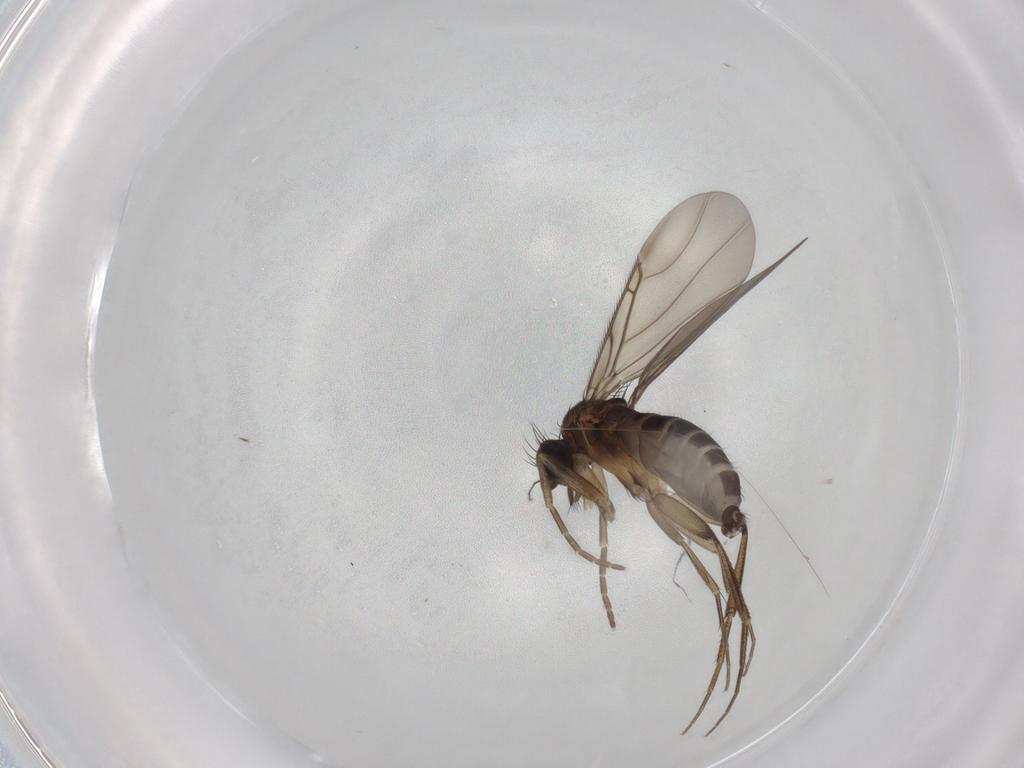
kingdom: Animalia
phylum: Arthropoda
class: Insecta
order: Diptera
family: Phoridae
